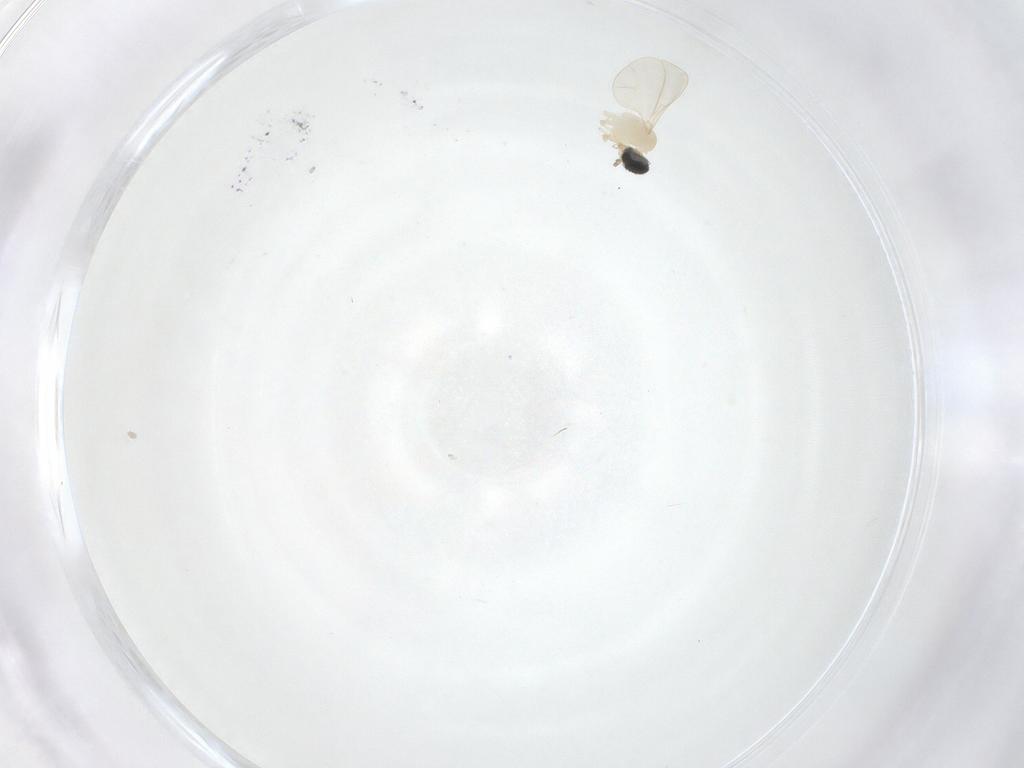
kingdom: Animalia
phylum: Arthropoda
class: Insecta
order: Diptera
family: Cecidomyiidae
